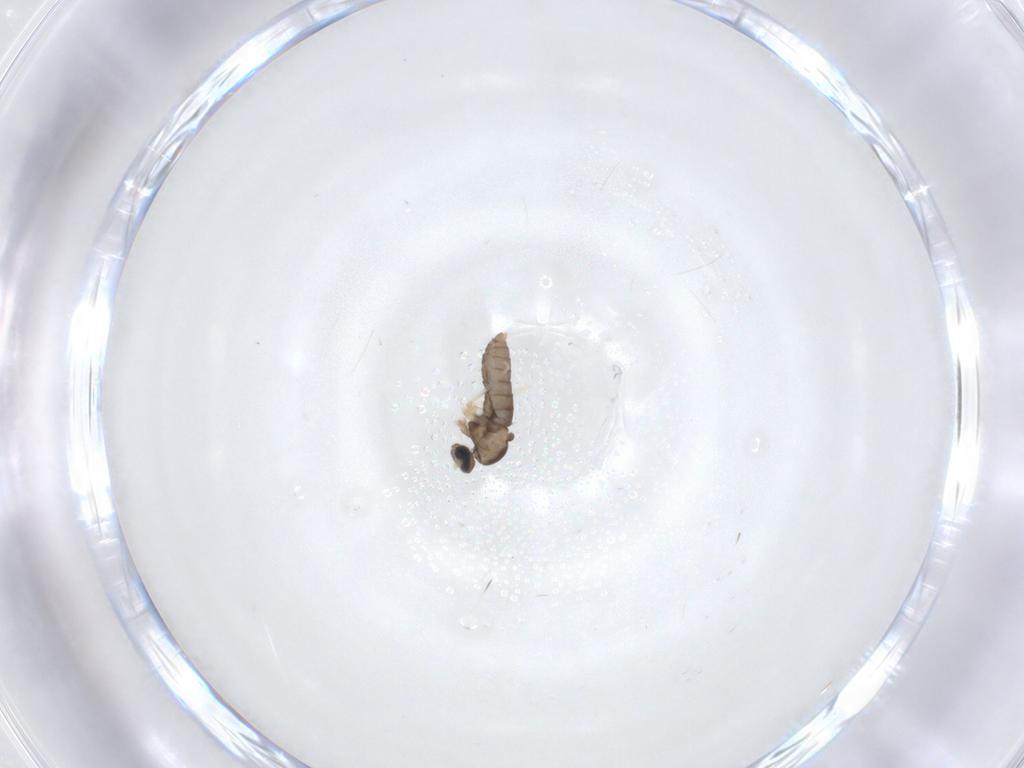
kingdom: Animalia
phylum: Arthropoda
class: Insecta
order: Diptera
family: Cecidomyiidae
